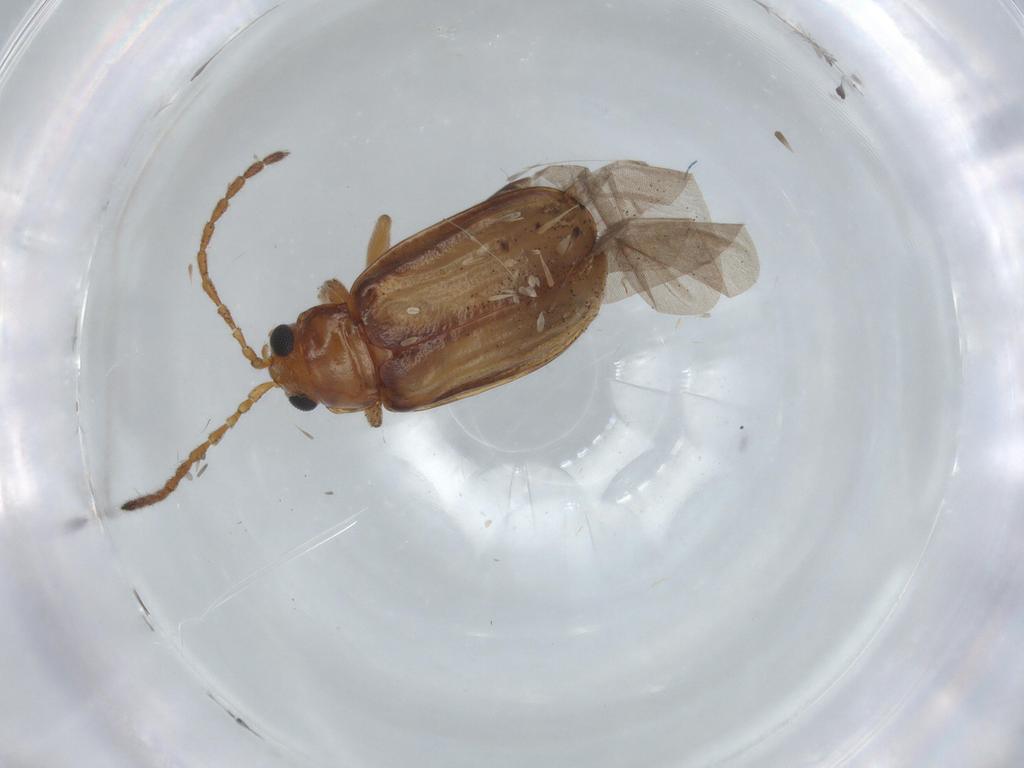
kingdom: Animalia
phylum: Arthropoda
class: Insecta
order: Coleoptera
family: Chrysomelidae
